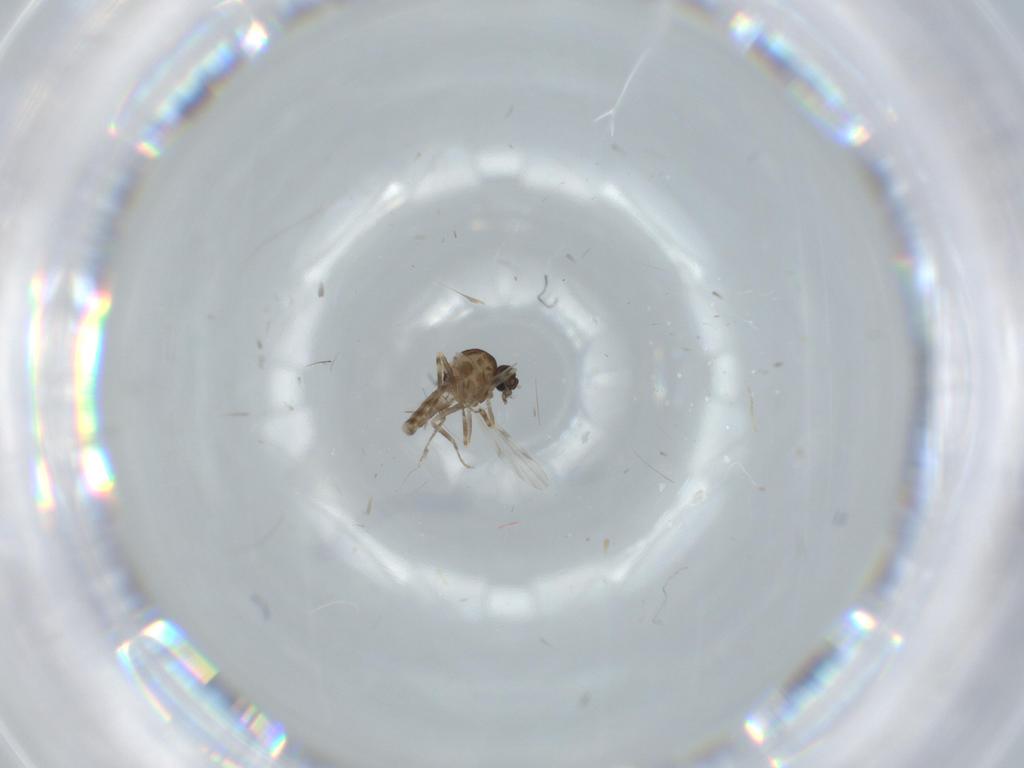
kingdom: Animalia
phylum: Arthropoda
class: Insecta
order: Diptera
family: Ceratopogonidae
